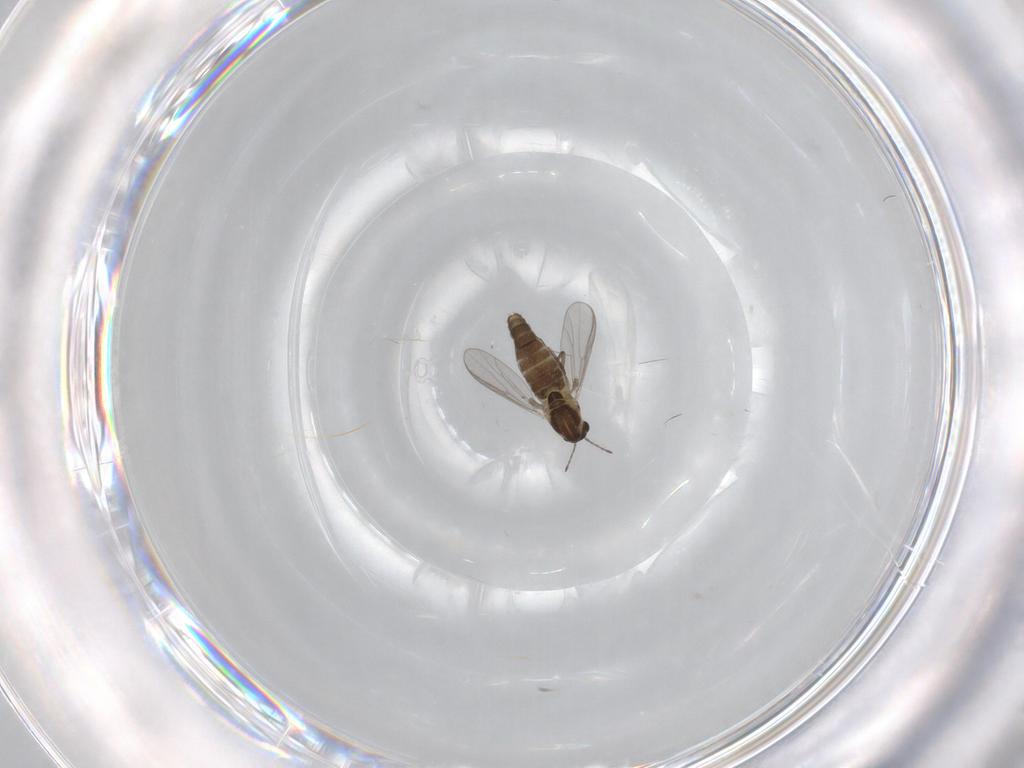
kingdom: Animalia
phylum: Arthropoda
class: Insecta
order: Diptera
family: Chironomidae
